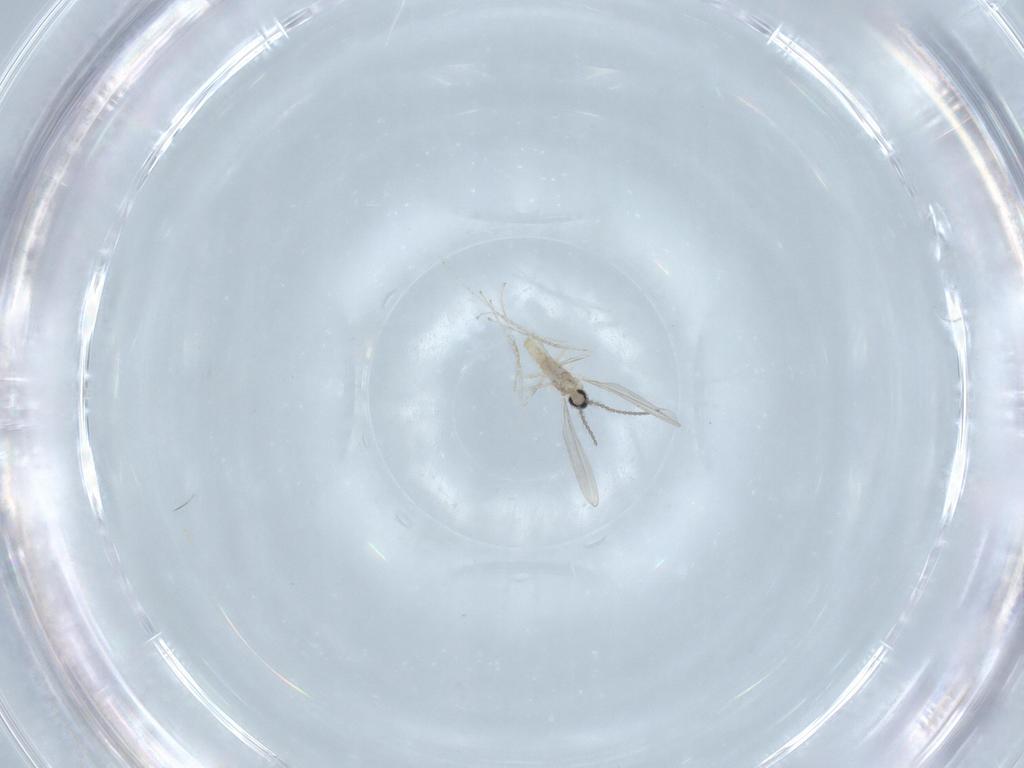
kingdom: Animalia
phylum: Arthropoda
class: Insecta
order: Diptera
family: Cecidomyiidae
